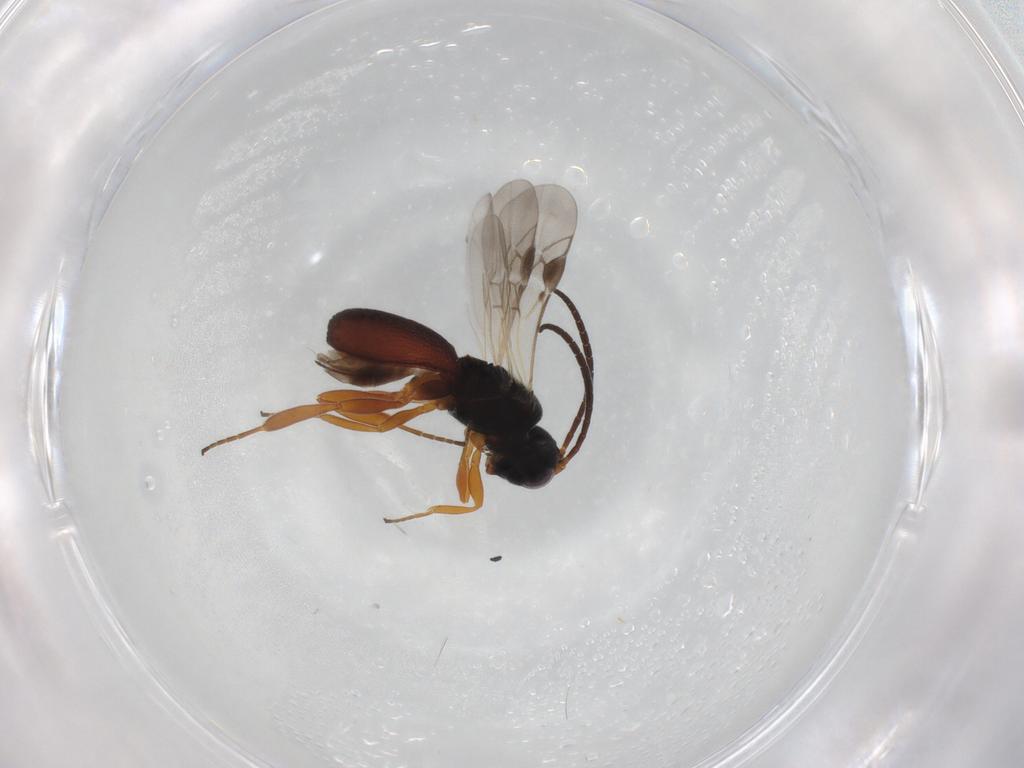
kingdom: Animalia
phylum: Arthropoda
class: Insecta
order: Hymenoptera
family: Braconidae
